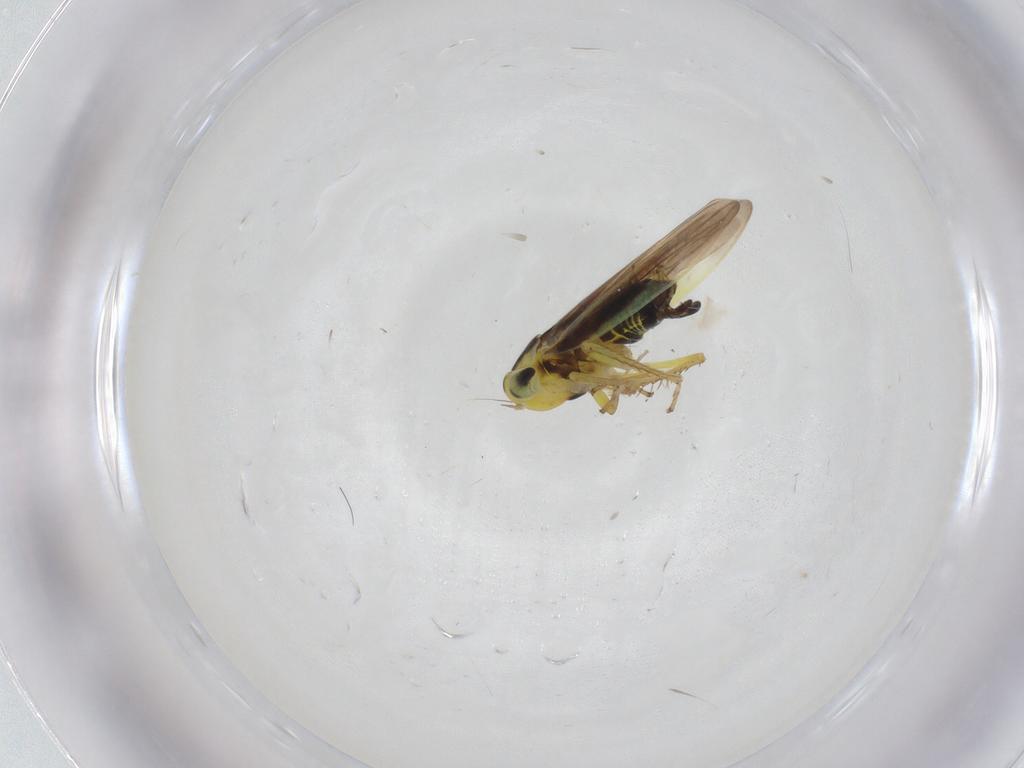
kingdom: Animalia
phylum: Arthropoda
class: Insecta
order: Hemiptera
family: Cicadellidae
